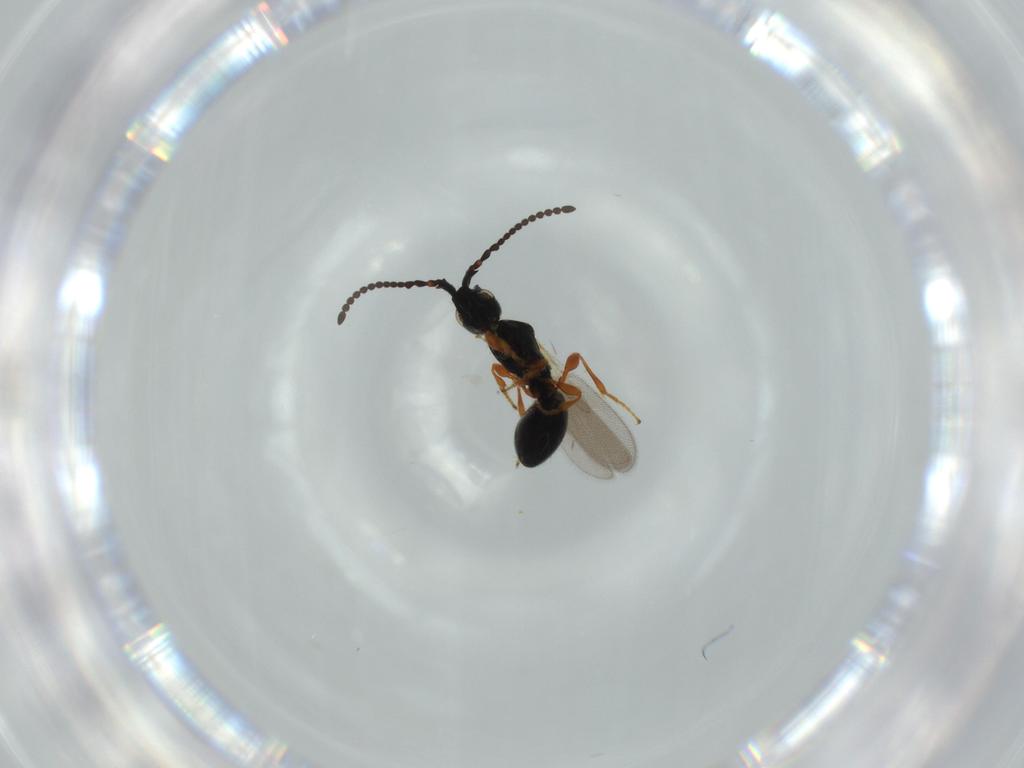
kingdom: Animalia
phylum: Arthropoda
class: Insecta
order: Hymenoptera
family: Diapriidae
